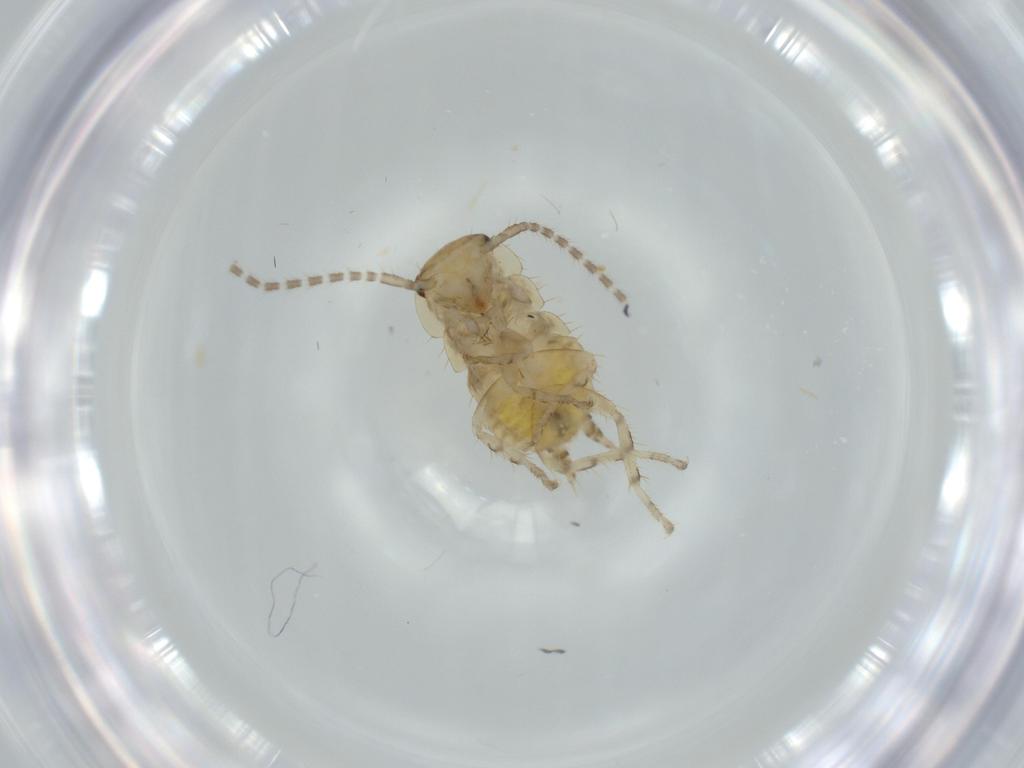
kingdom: Animalia
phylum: Arthropoda
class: Insecta
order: Blattodea
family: Ectobiidae
